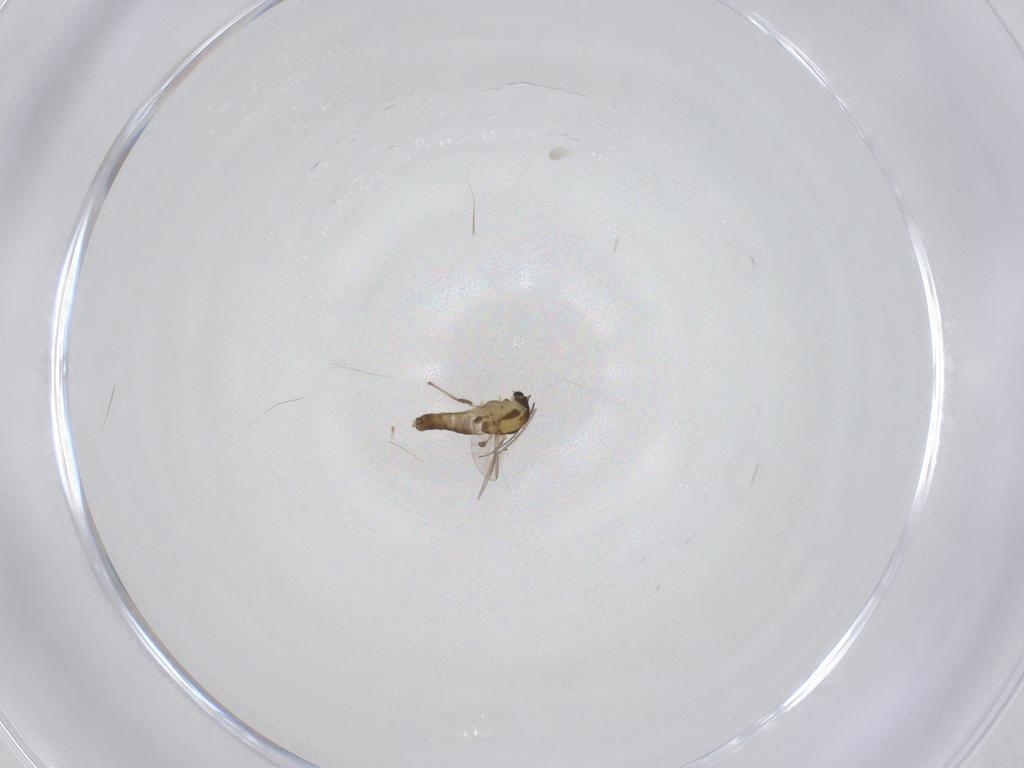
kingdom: Animalia
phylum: Arthropoda
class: Insecta
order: Diptera
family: Chironomidae
